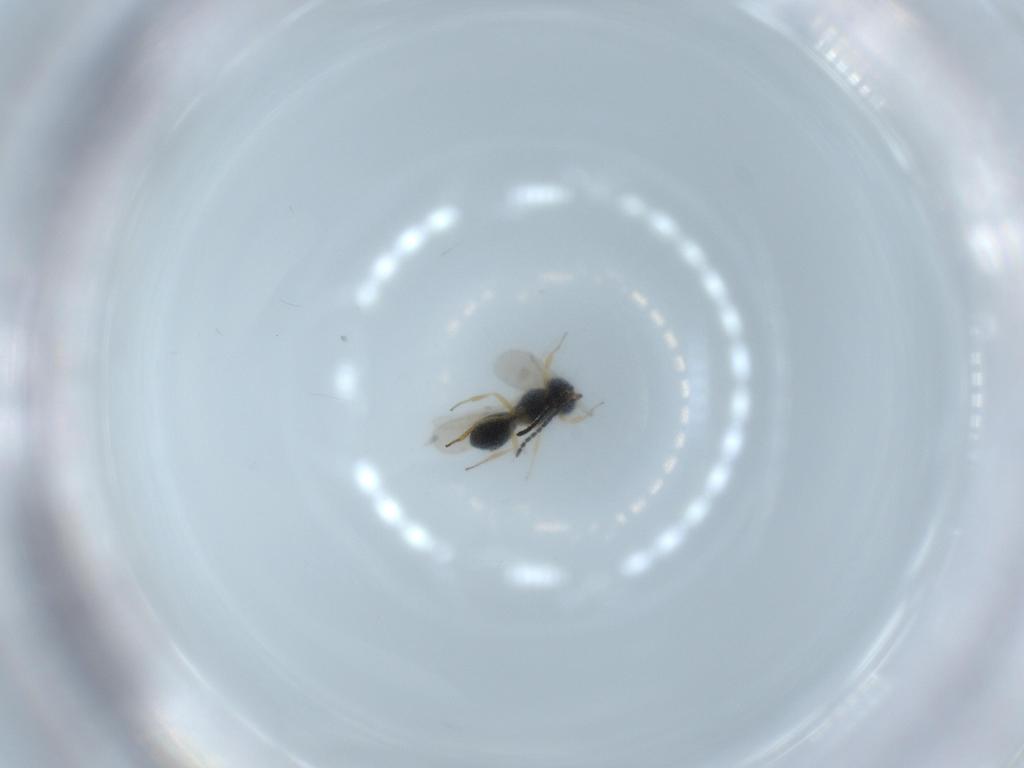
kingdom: Animalia
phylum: Arthropoda
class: Insecta
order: Hymenoptera
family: Scelionidae
